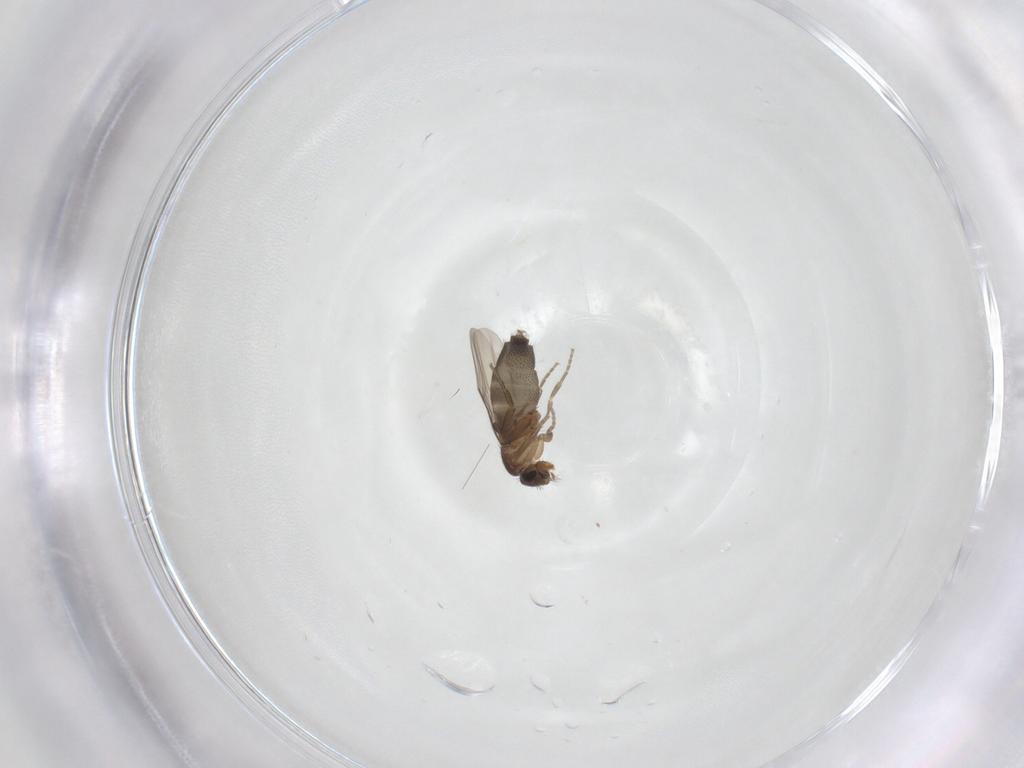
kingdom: Animalia
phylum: Arthropoda
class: Insecta
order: Diptera
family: Phoridae
